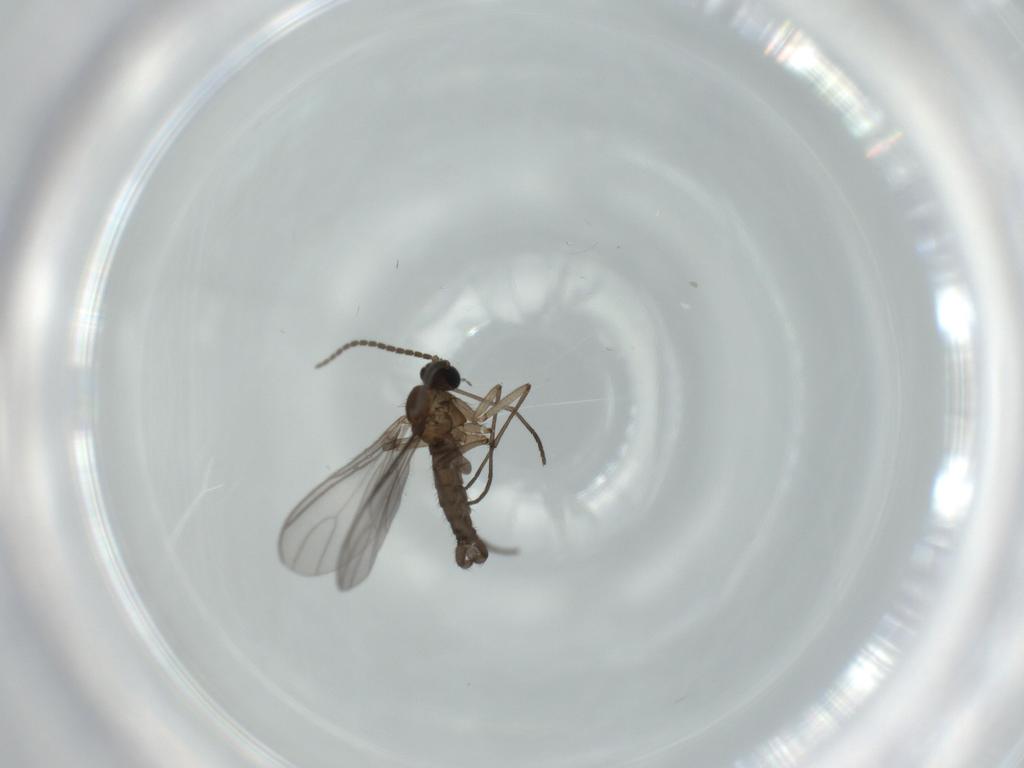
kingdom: Animalia
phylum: Arthropoda
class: Insecta
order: Diptera
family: Sciaridae
